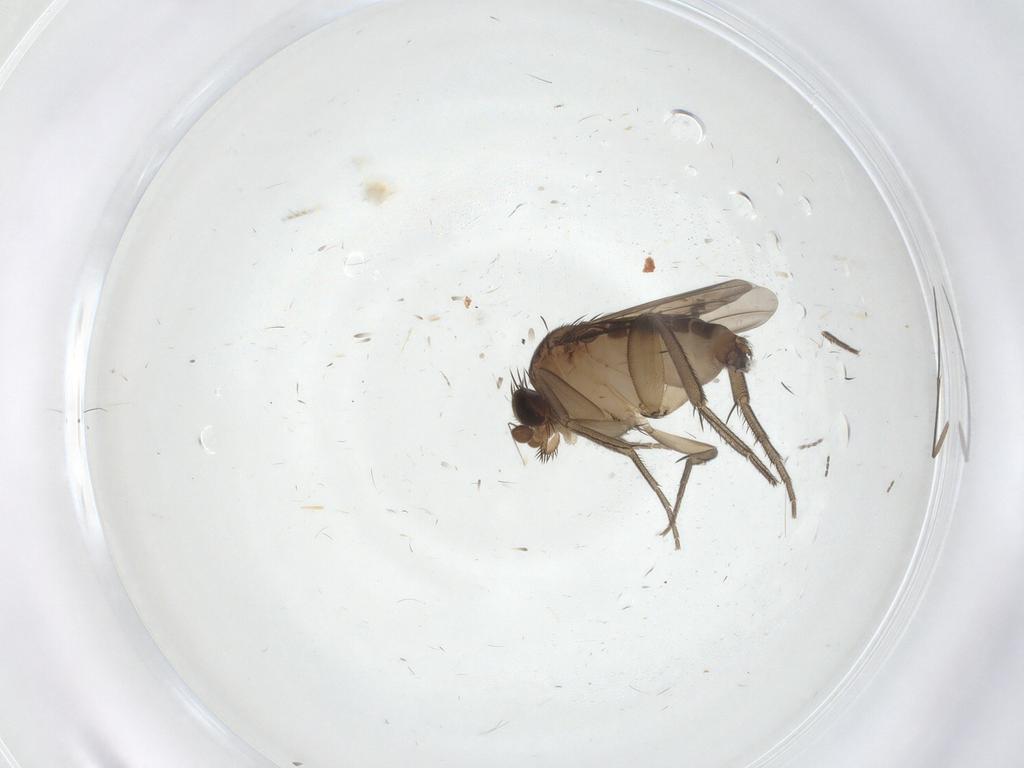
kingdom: Animalia
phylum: Arthropoda
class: Insecta
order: Diptera
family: Phoridae
